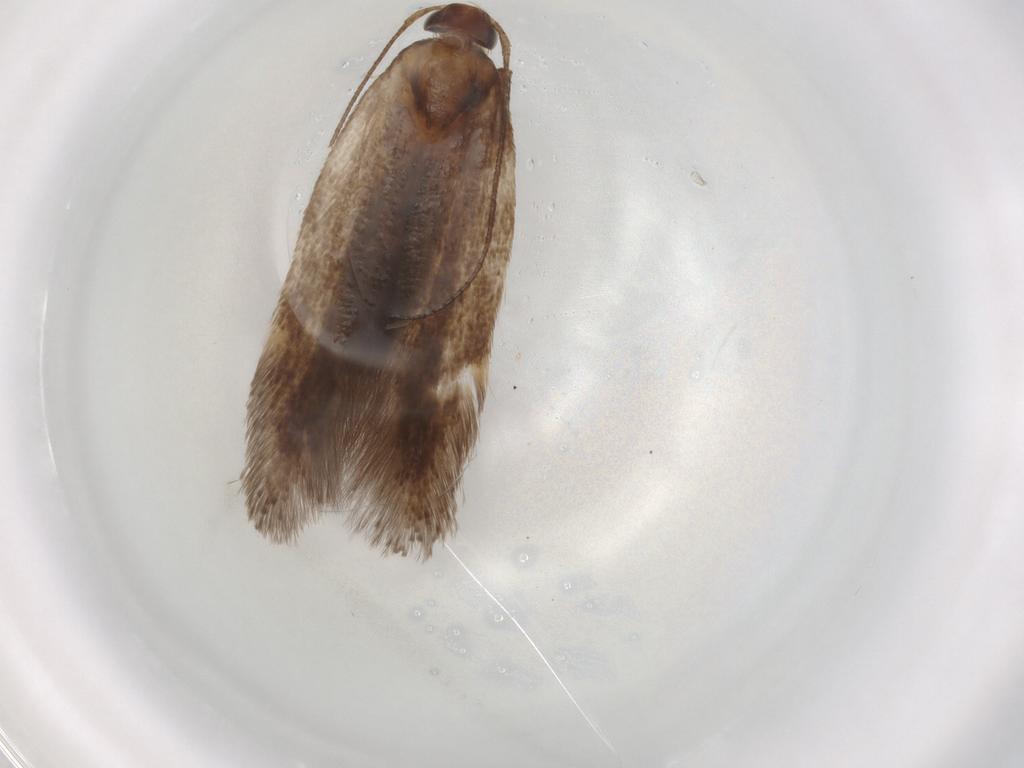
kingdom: Animalia
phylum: Arthropoda
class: Insecta
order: Lepidoptera
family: Gelechiidae
